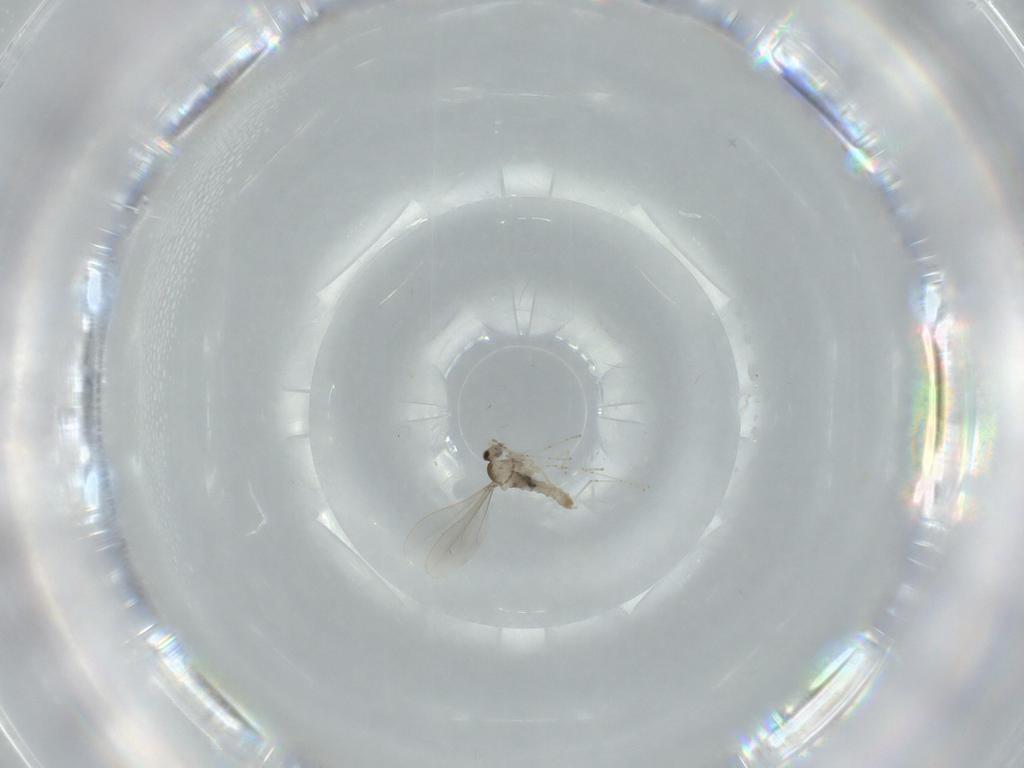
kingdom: Animalia
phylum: Arthropoda
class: Insecta
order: Diptera
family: Cecidomyiidae
